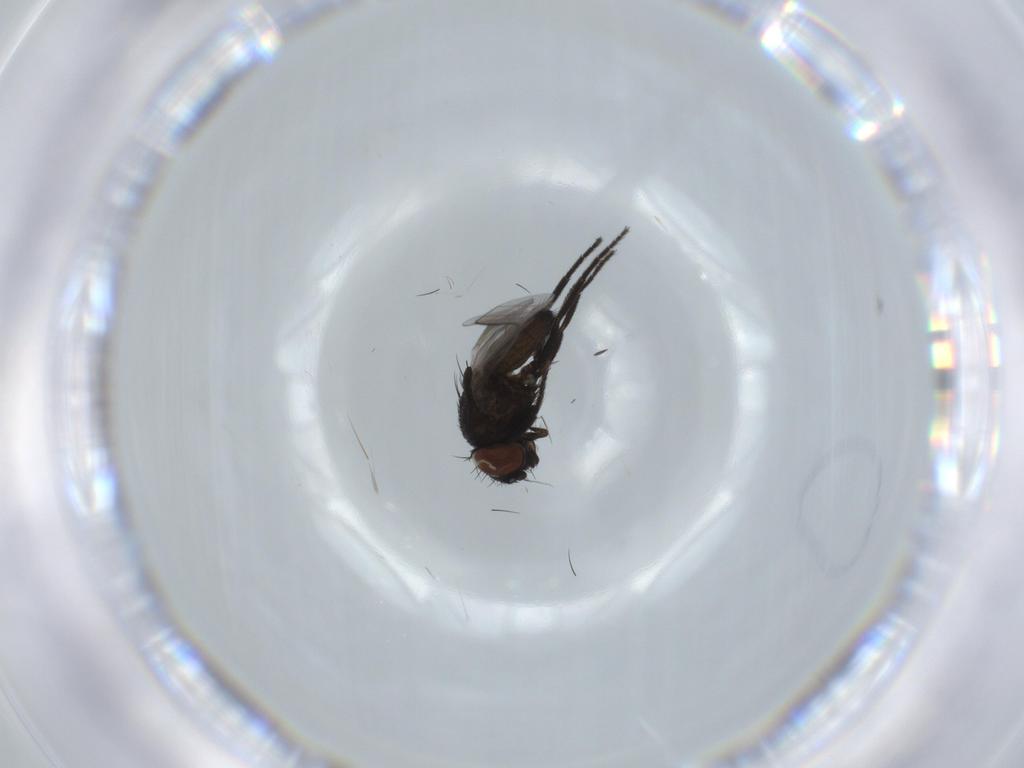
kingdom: Animalia
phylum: Arthropoda
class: Insecta
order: Diptera
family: Milichiidae
